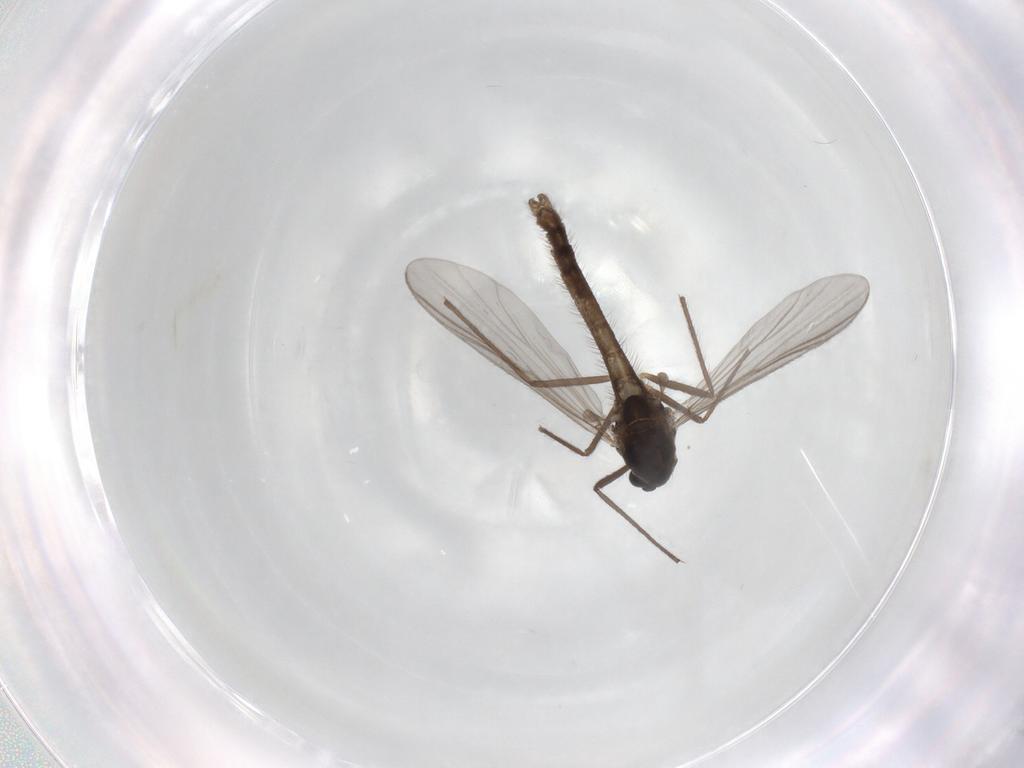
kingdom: Animalia
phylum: Arthropoda
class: Insecta
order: Diptera
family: Chironomidae
